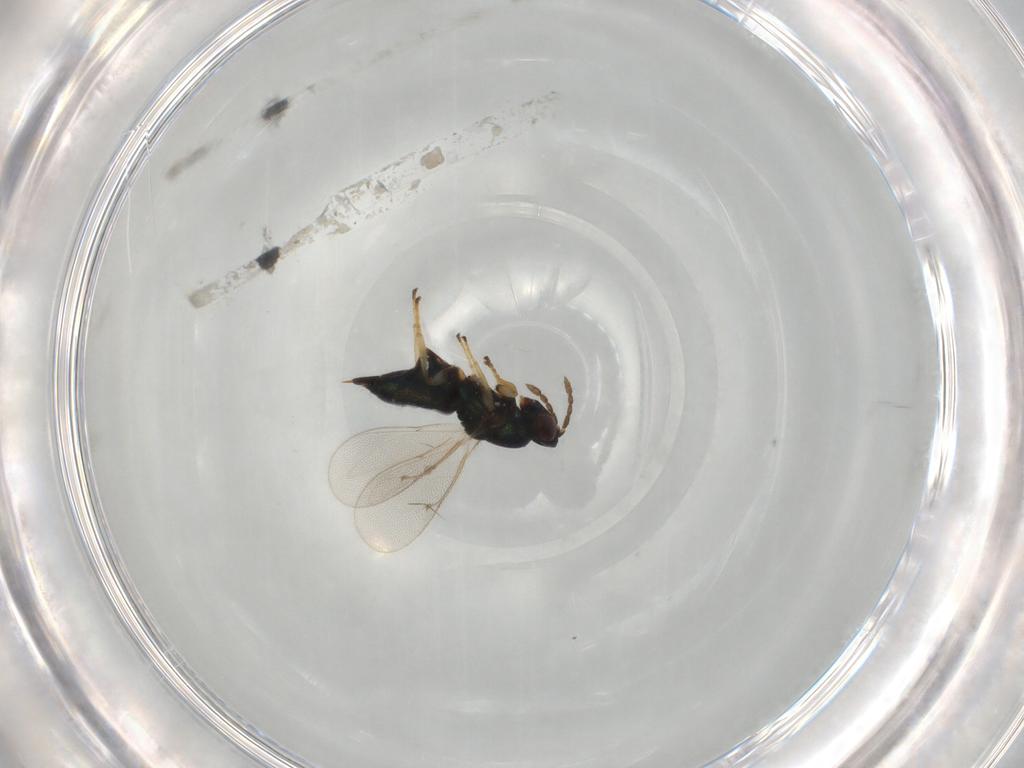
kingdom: Animalia
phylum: Arthropoda
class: Insecta
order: Hymenoptera
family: Eulophidae
